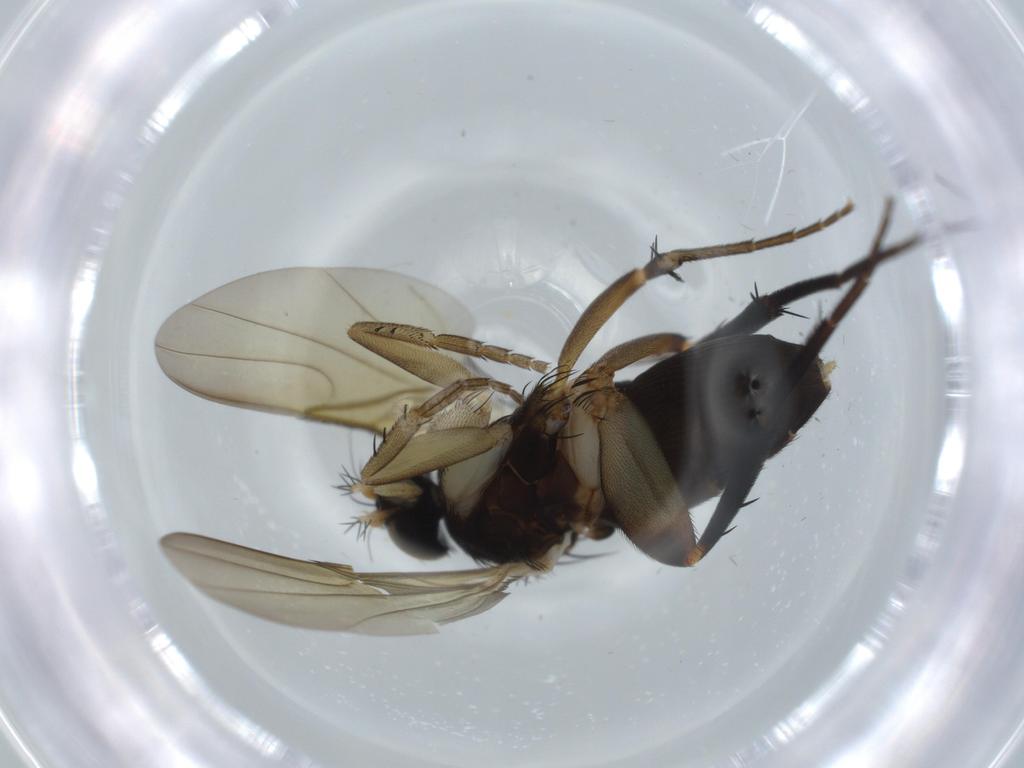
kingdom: Animalia
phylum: Arthropoda
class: Insecta
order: Diptera
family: Phoridae
